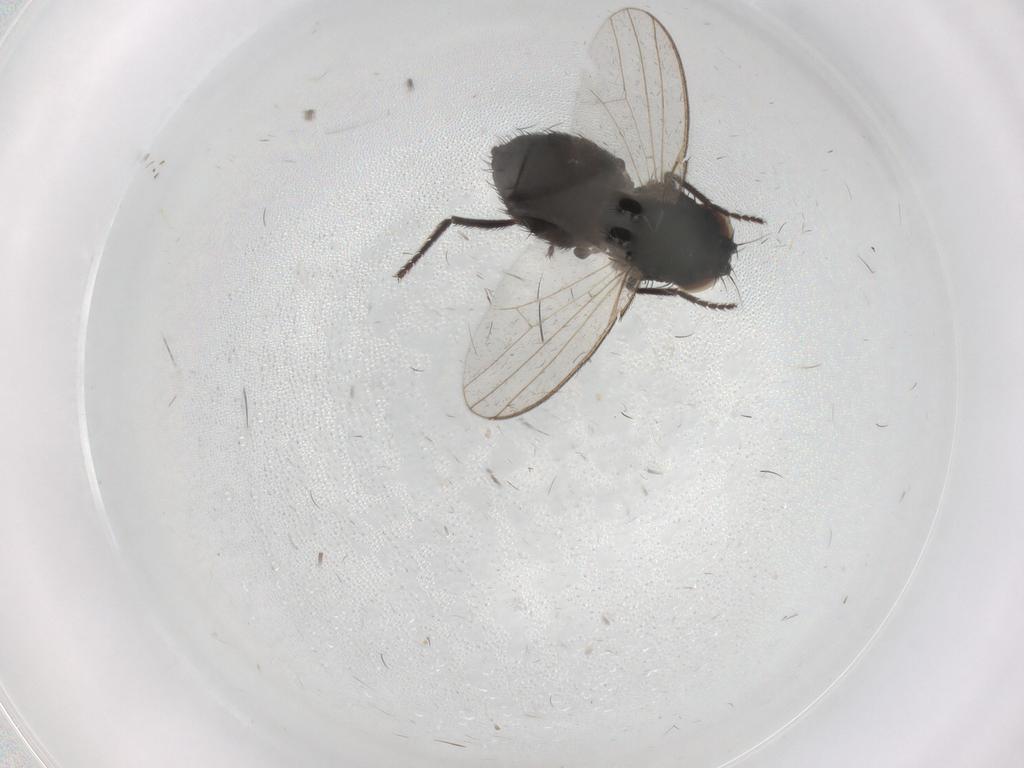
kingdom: Animalia
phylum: Arthropoda
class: Insecta
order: Diptera
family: Milichiidae
